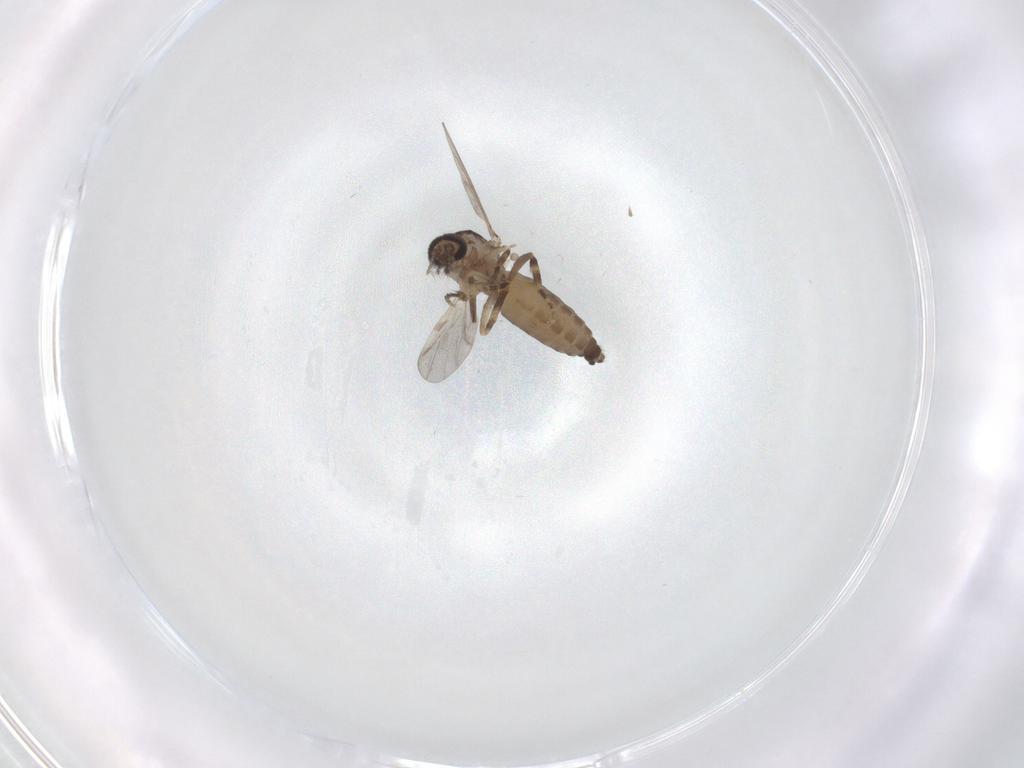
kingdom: Animalia
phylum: Arthropoda
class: Insecta
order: Diptera
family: Ceratopogonidae
